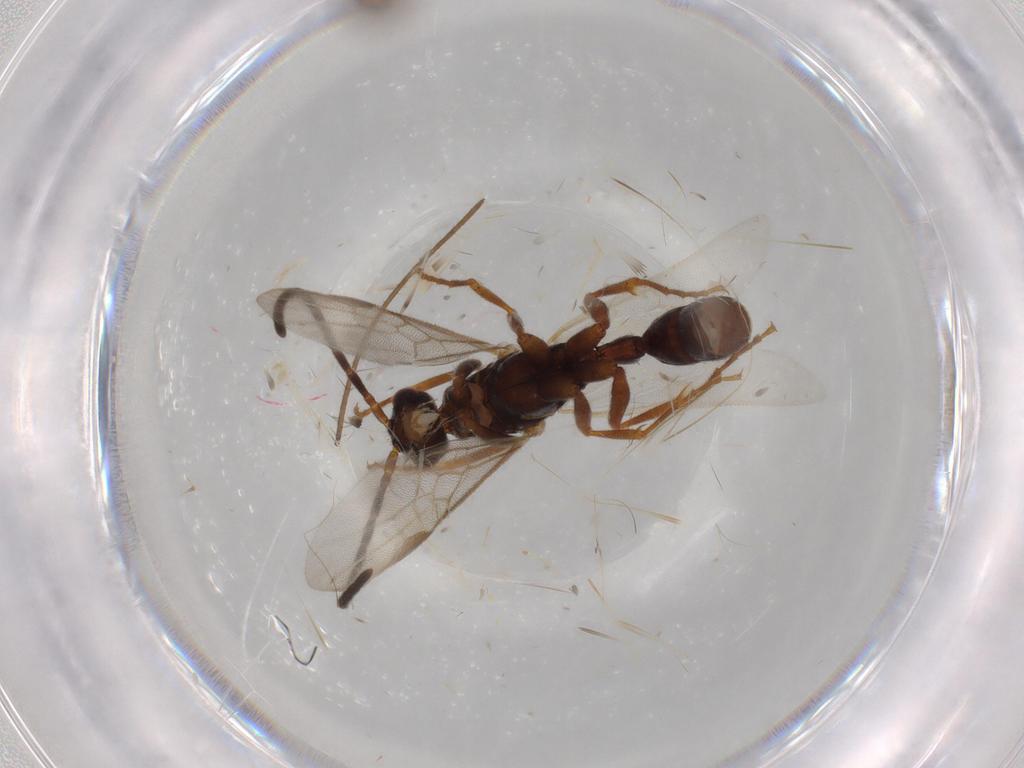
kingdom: Animalia
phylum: Arthropoda
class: Insecta
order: Hymenoptera
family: Formicidae
